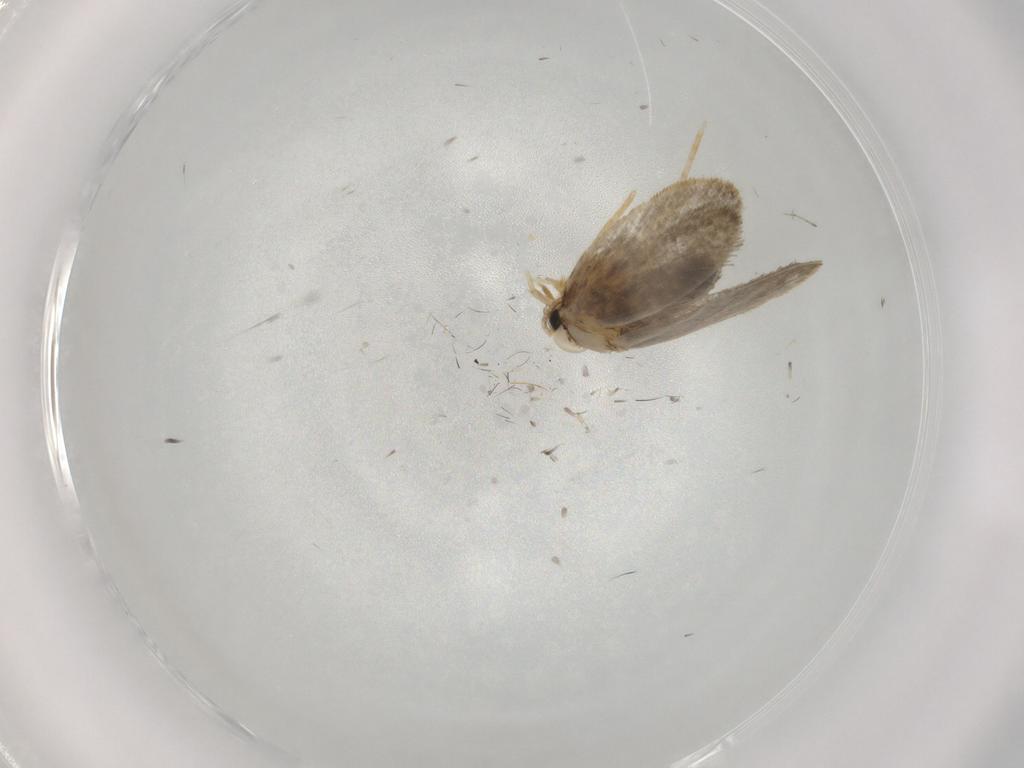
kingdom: Animalia
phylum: Arthropoda
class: Insecta
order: Lepidoptera
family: Psychidae
